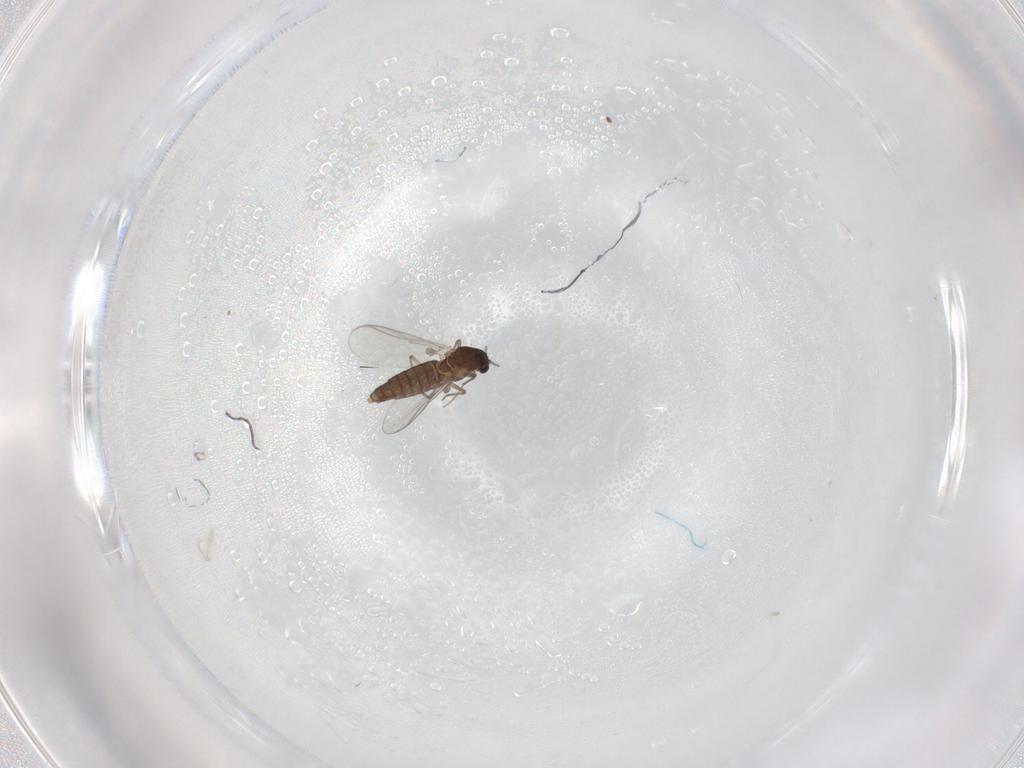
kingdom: Animalia
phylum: Arthropoda
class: Insecta
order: Diptera
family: Chironomidae
